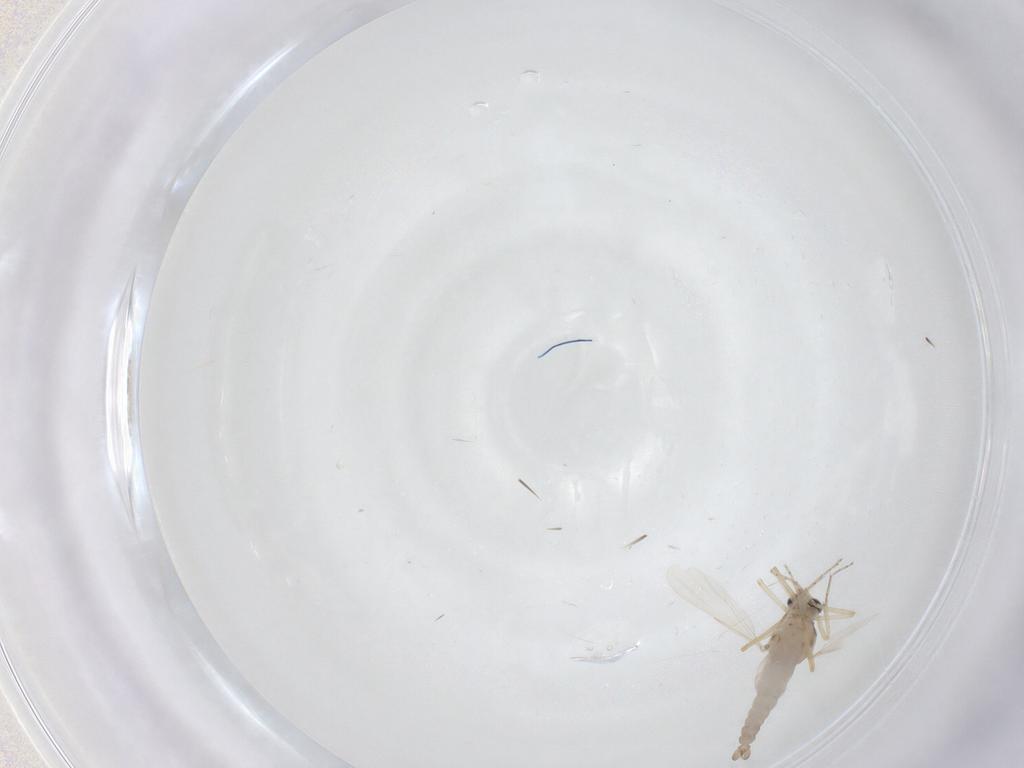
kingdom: Animalia
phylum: Arthropoda
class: Insecta
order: Diptera
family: Ceratopogonidae
